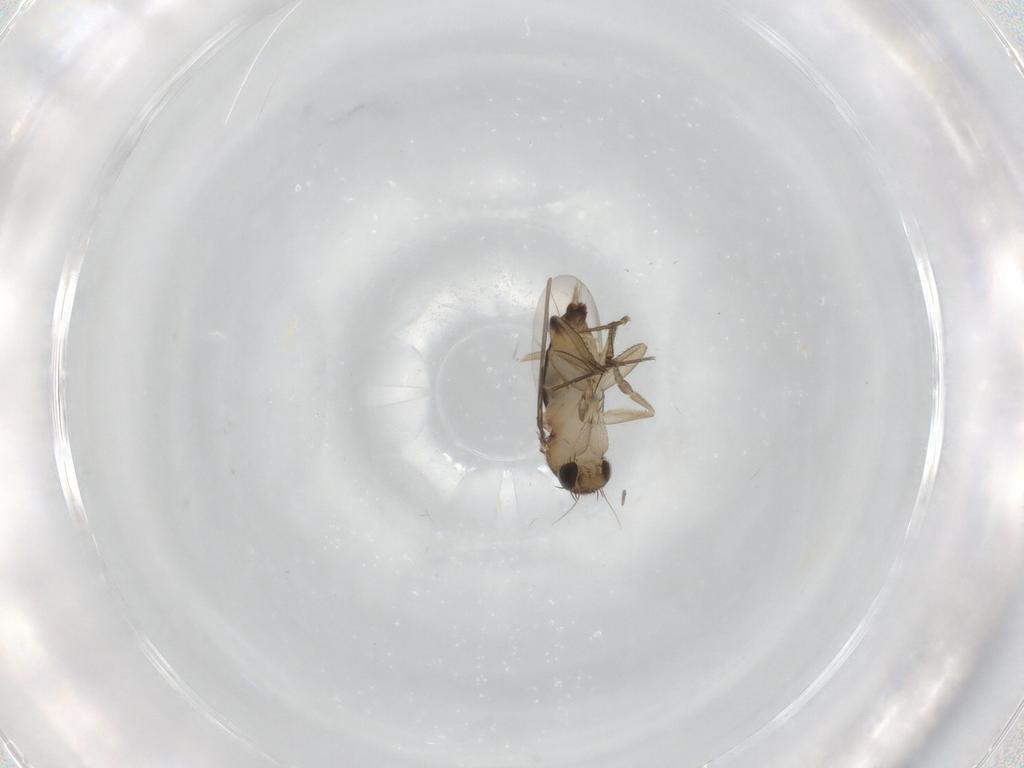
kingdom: Animalia
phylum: Arthropoda
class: Insecta
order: Diptera
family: Phoridae
